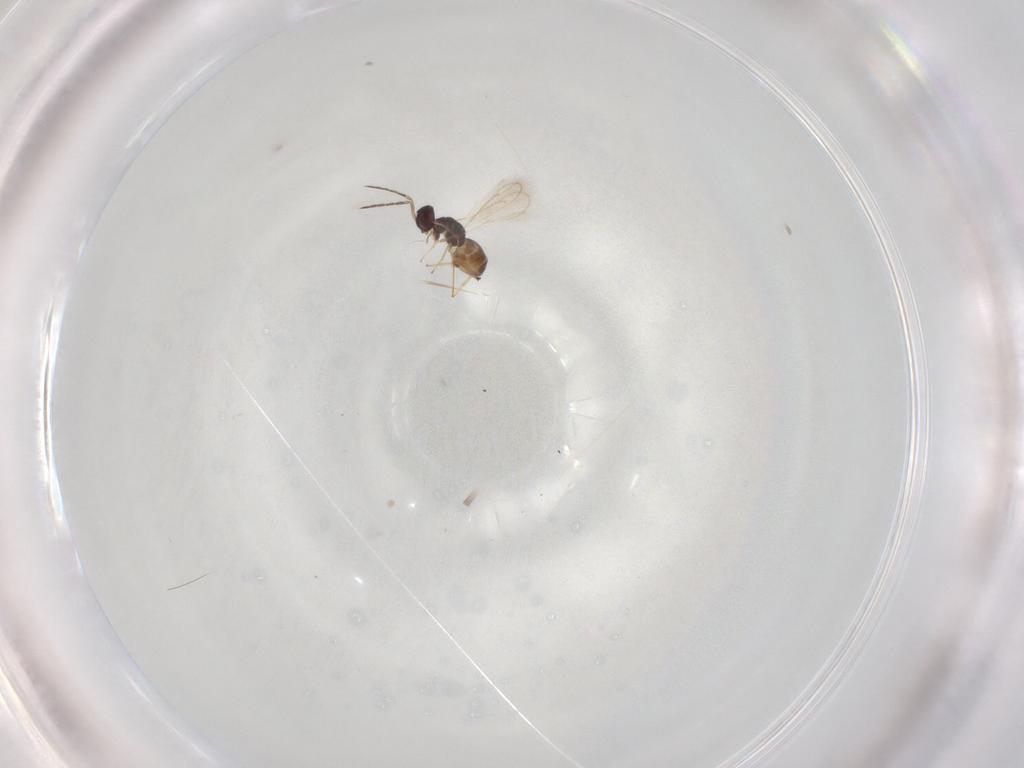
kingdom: Animalia
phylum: Arthropoda
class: Insecta
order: Hymenoptera
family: Eulophidae
